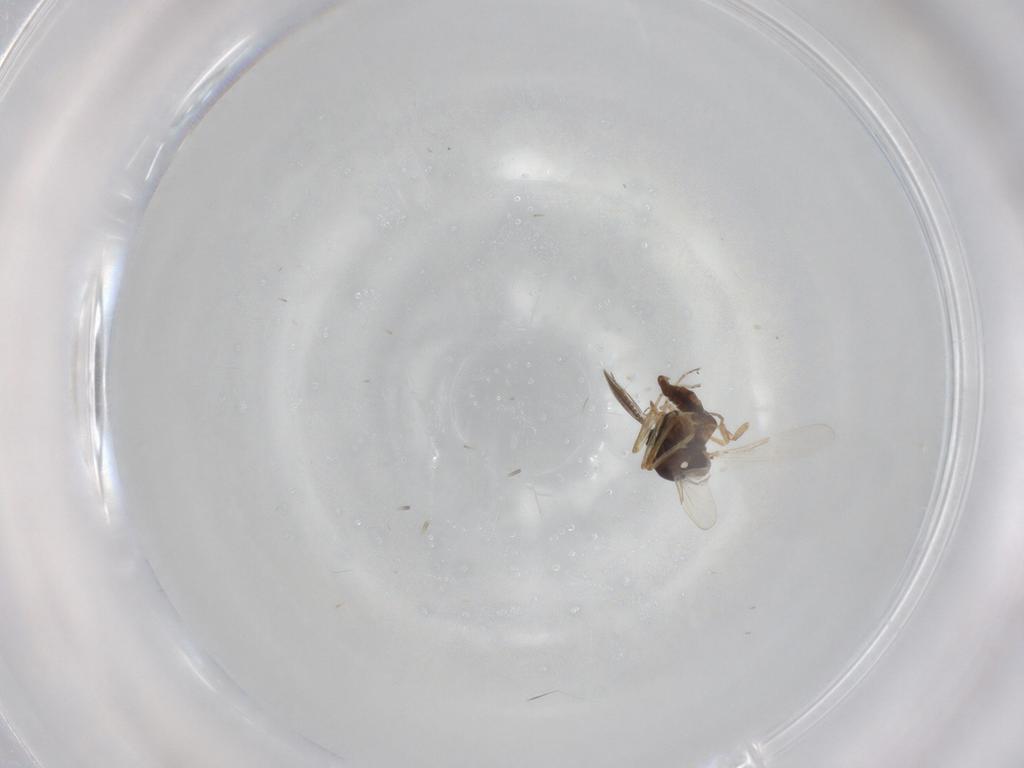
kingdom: Animalia
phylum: Arthropoda
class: Insecta
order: Diptera
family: Ceratopogonidae
